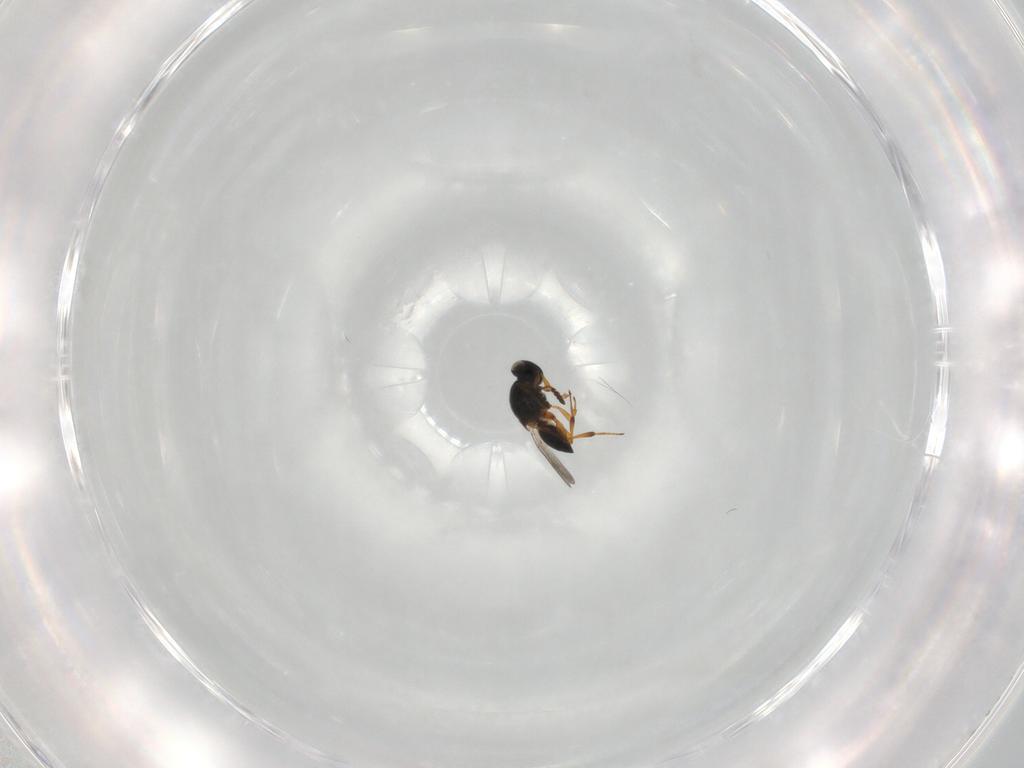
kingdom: Animalia
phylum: Arthropoda
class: Insecta
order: Hymenoptera
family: Platygastridae
